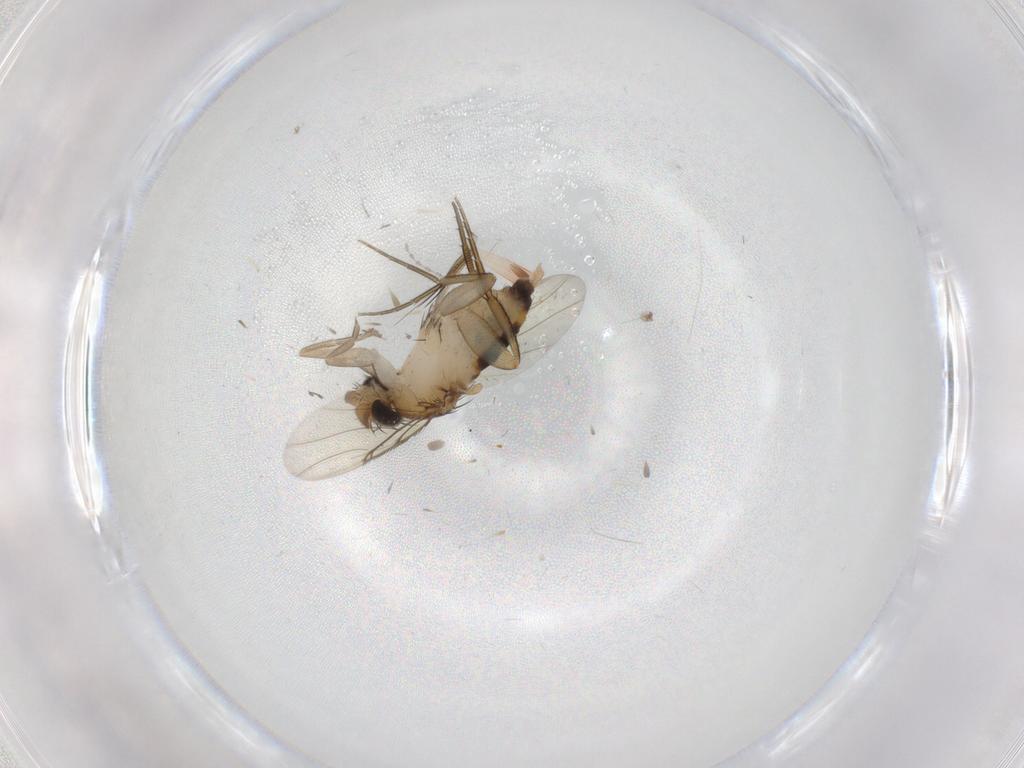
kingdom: Animalia
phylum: Arthropoda
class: Insecta
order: Diptera
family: Phoridae
